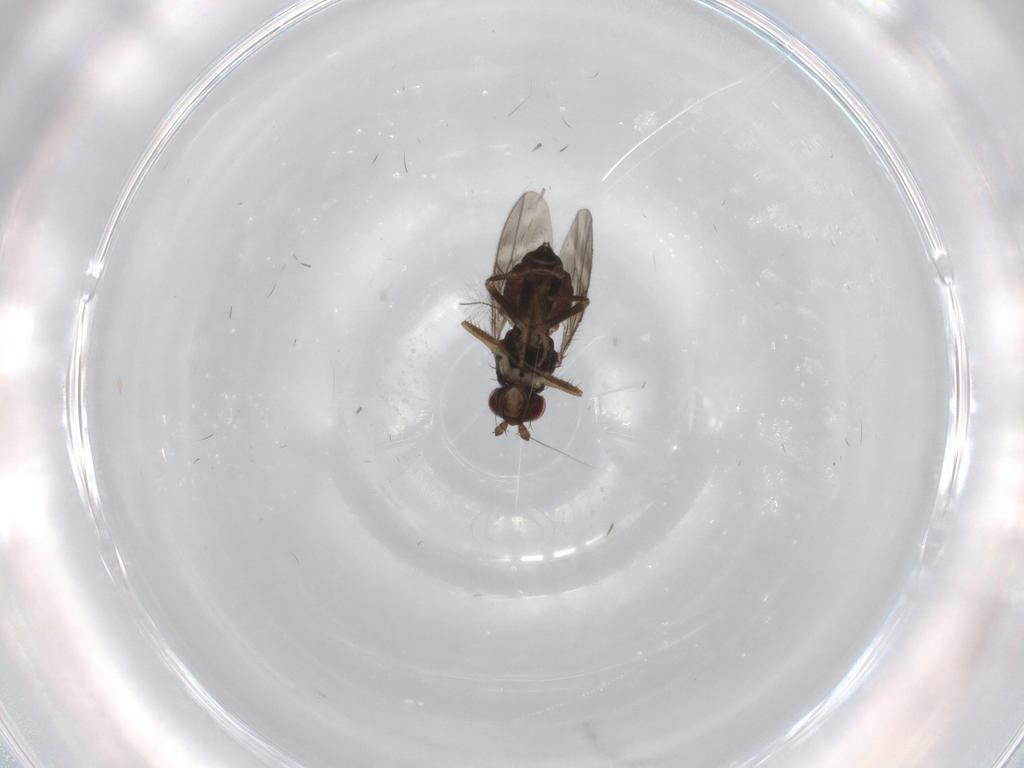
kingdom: Animalia
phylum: Arthropoda
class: Insecta
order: Diptera
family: Sphaeroceridae
